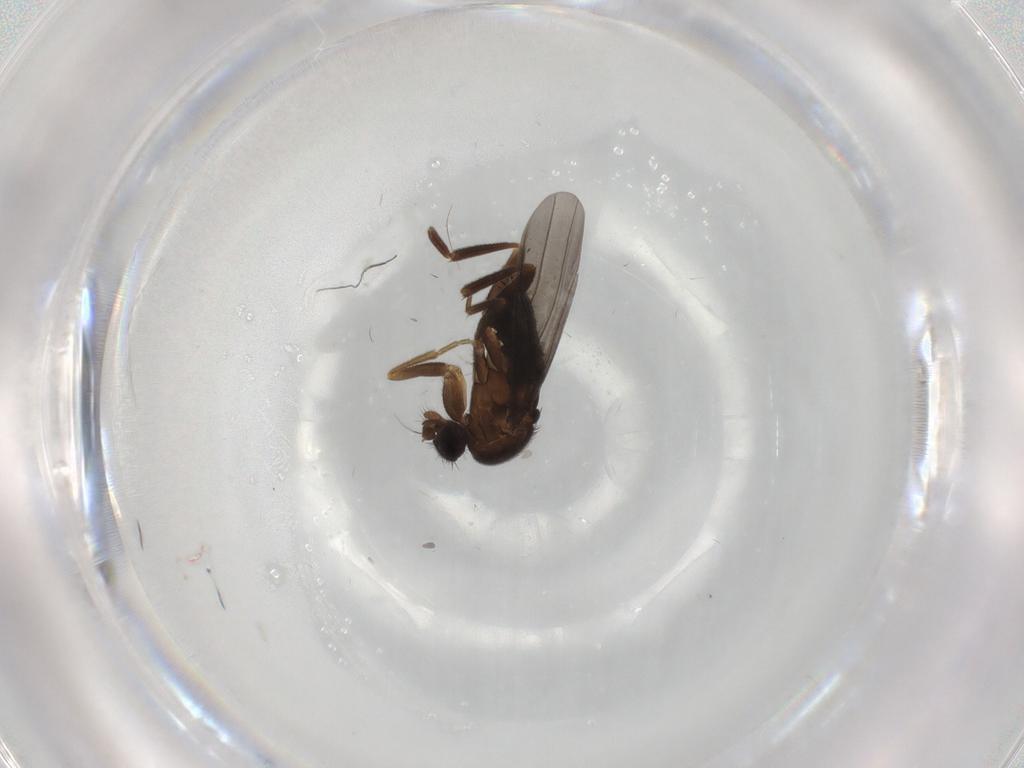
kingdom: Animalia
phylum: Arthropoda
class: Insecta
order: Diptera
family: Phoridae
